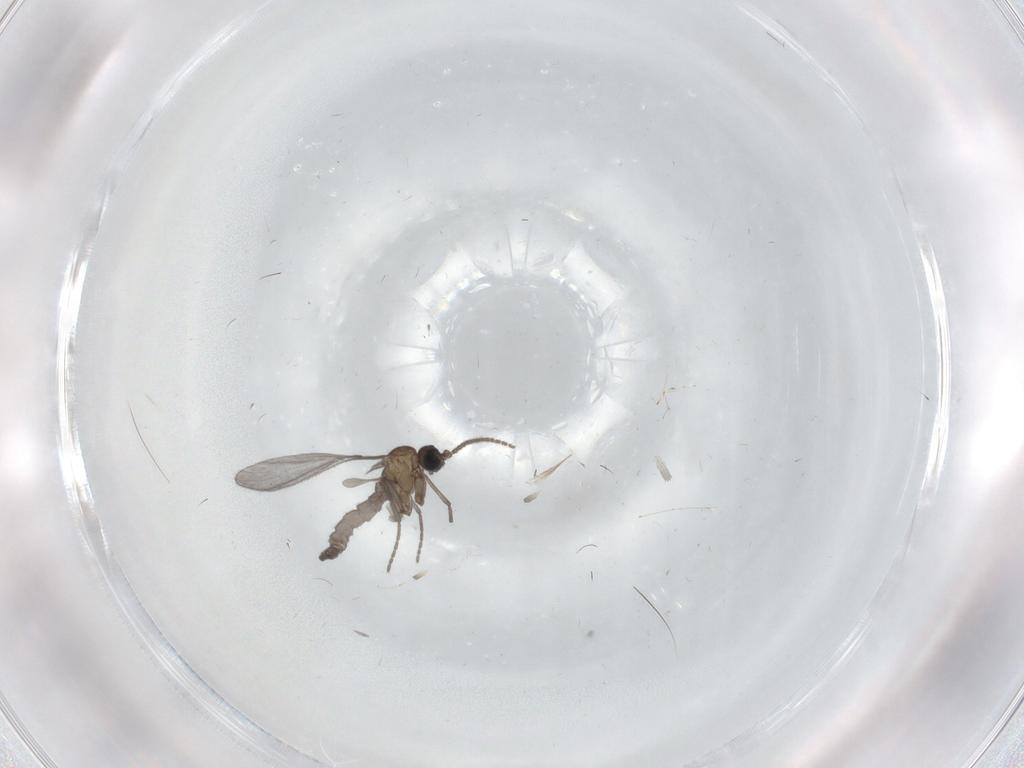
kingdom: Animalia
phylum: Arthropoda
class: Insecta
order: Diptera
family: Sciaridae
